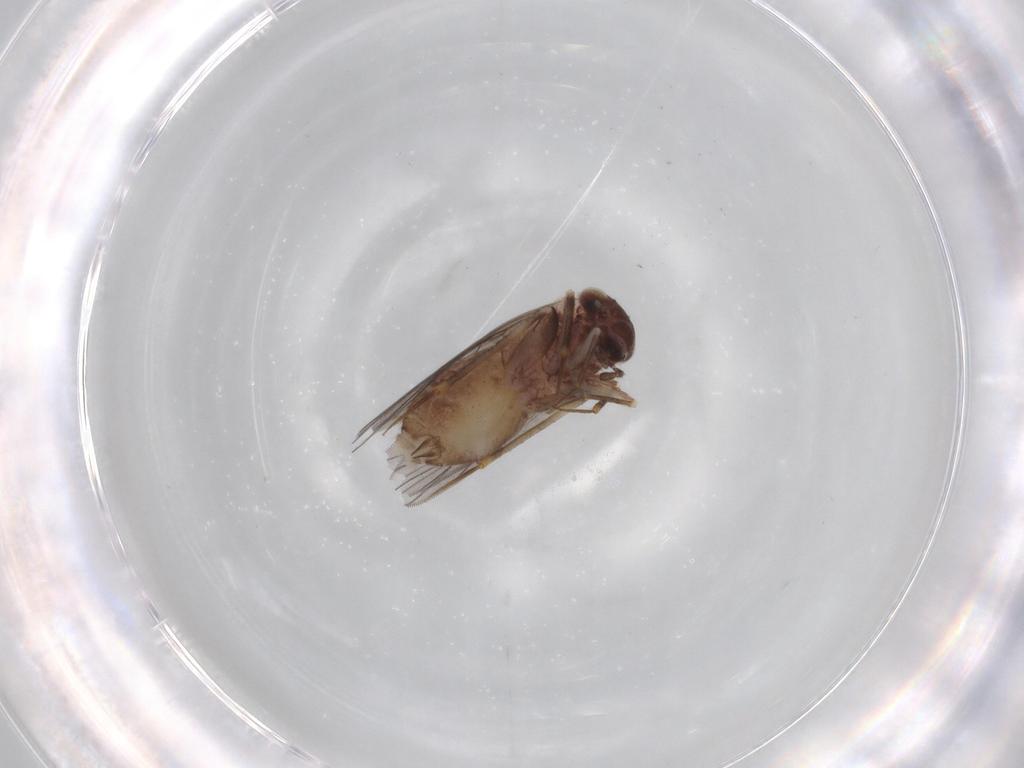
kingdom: Animalia
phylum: Arthropoda
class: Insecta
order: Psocodea
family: Lepidopsocidae
